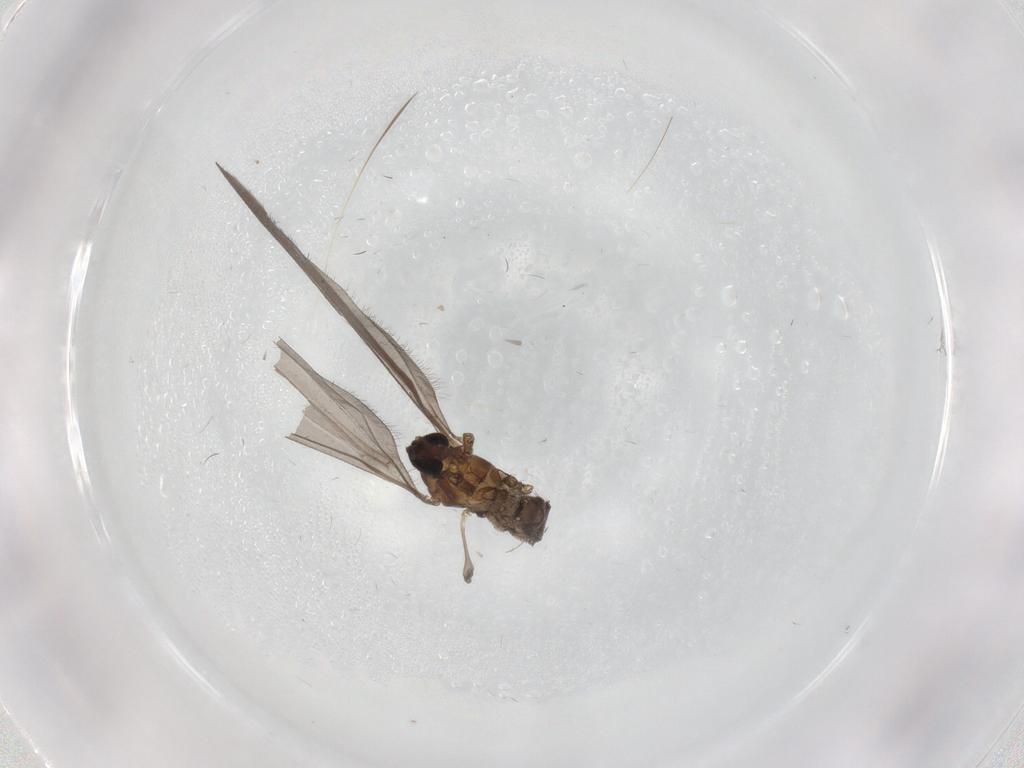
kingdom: Animalia
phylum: Arthropoda
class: Insecta
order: Diptera
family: Limoniidae
